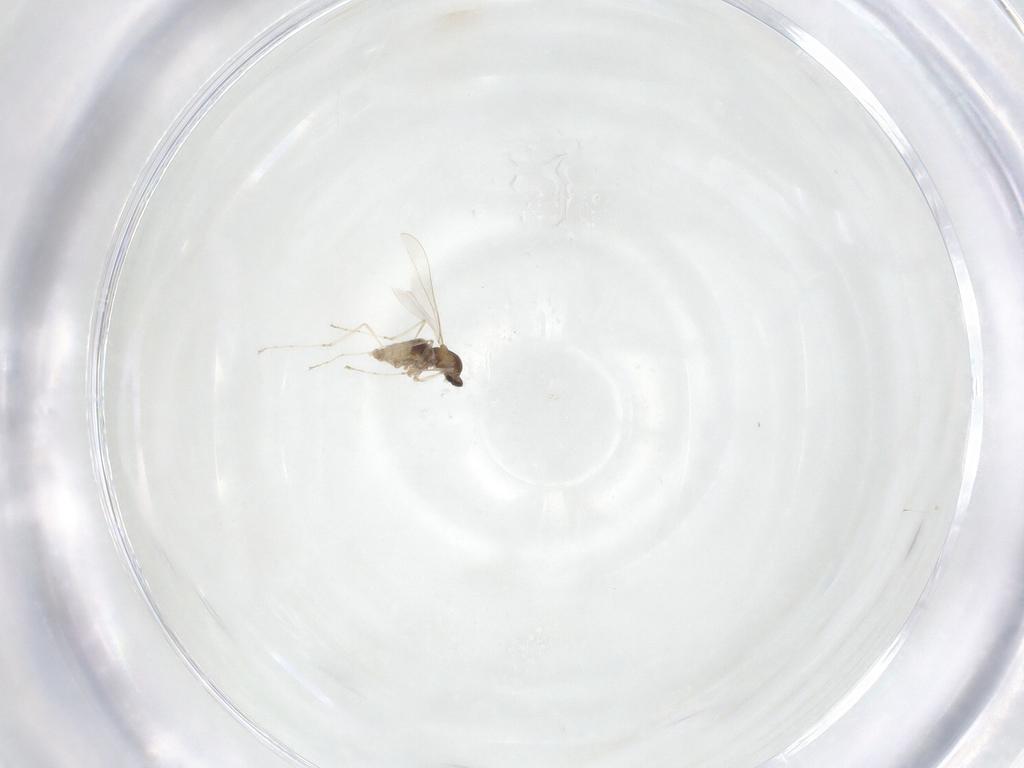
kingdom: Animalia
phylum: Arthropoda
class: Insecta
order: Diptera
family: Cecidomyiidae
